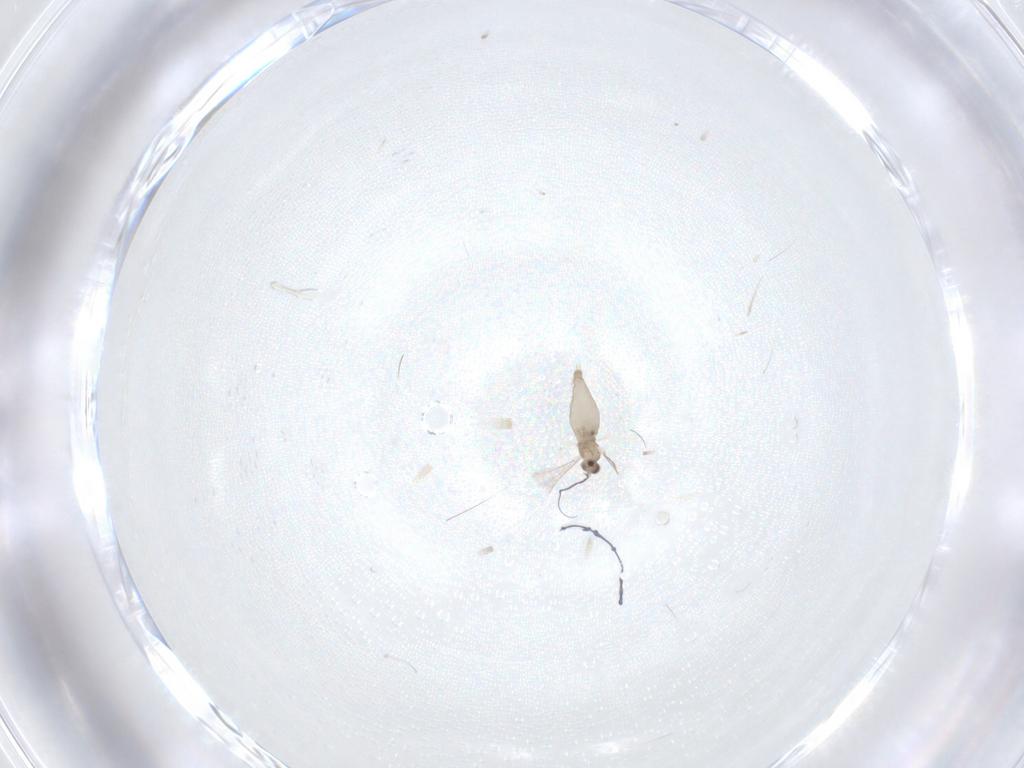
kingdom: Animalia
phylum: Arthropoda
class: Insecta
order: Diptera
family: Cecidomyiidae
